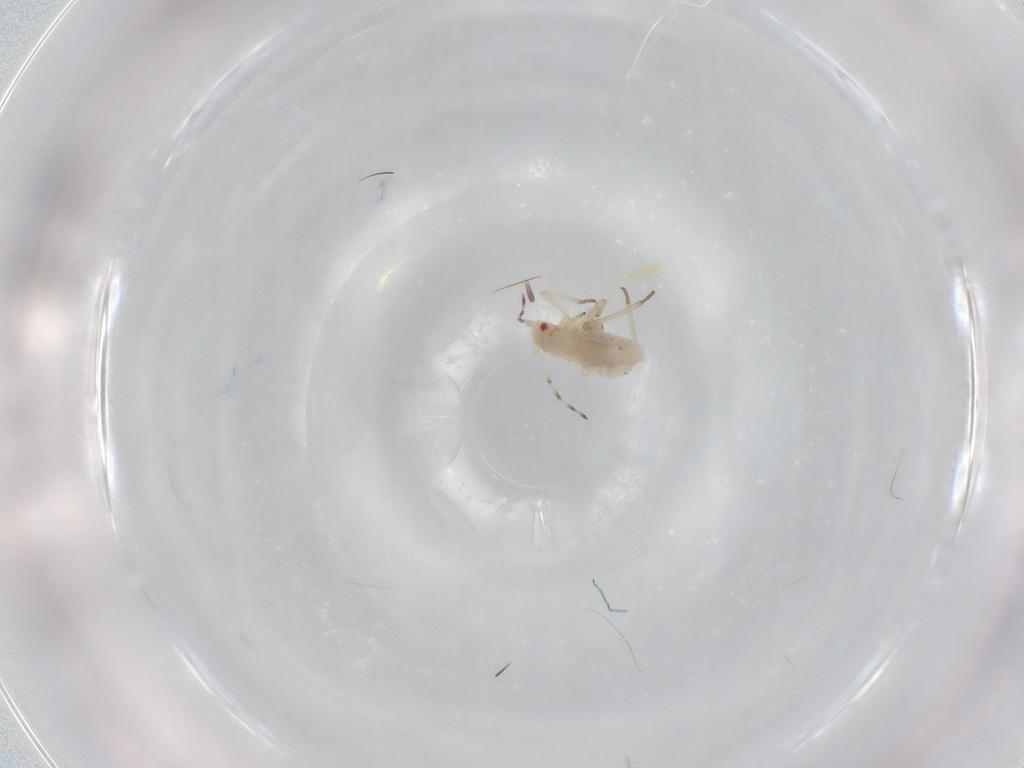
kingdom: Animalia
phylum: Arthropoda
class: Insecta
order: Hemiptera
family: Aphididae
